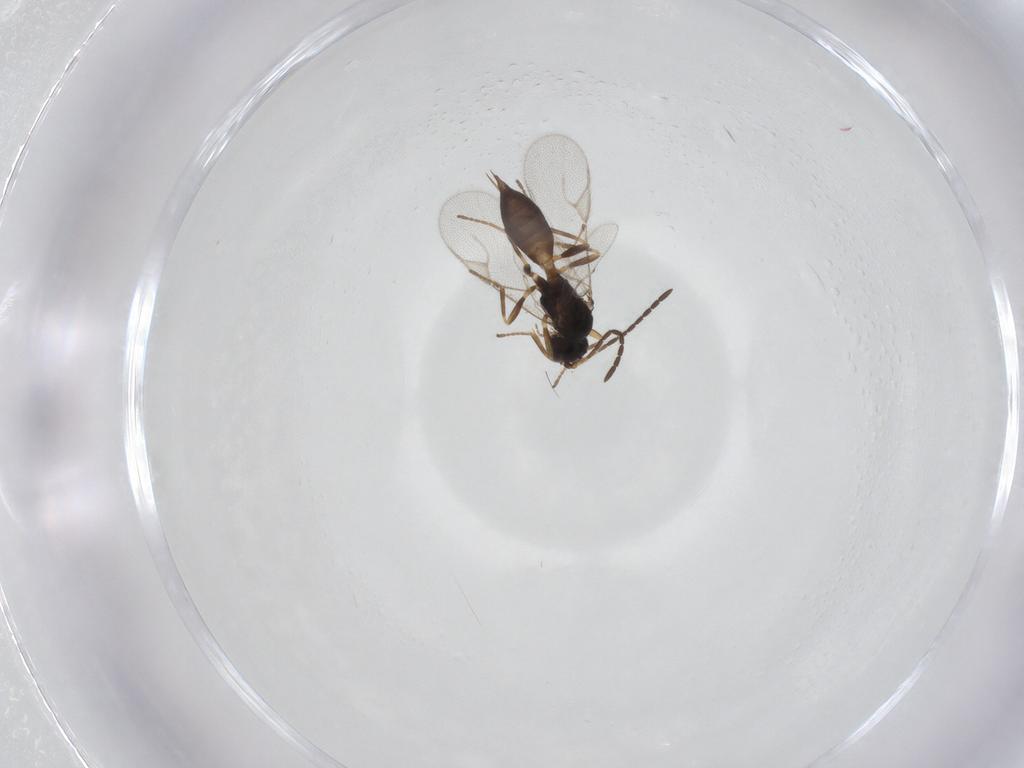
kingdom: Animalia
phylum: Arthropoda
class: Insecta
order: Hymenoptera
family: Braconidae
